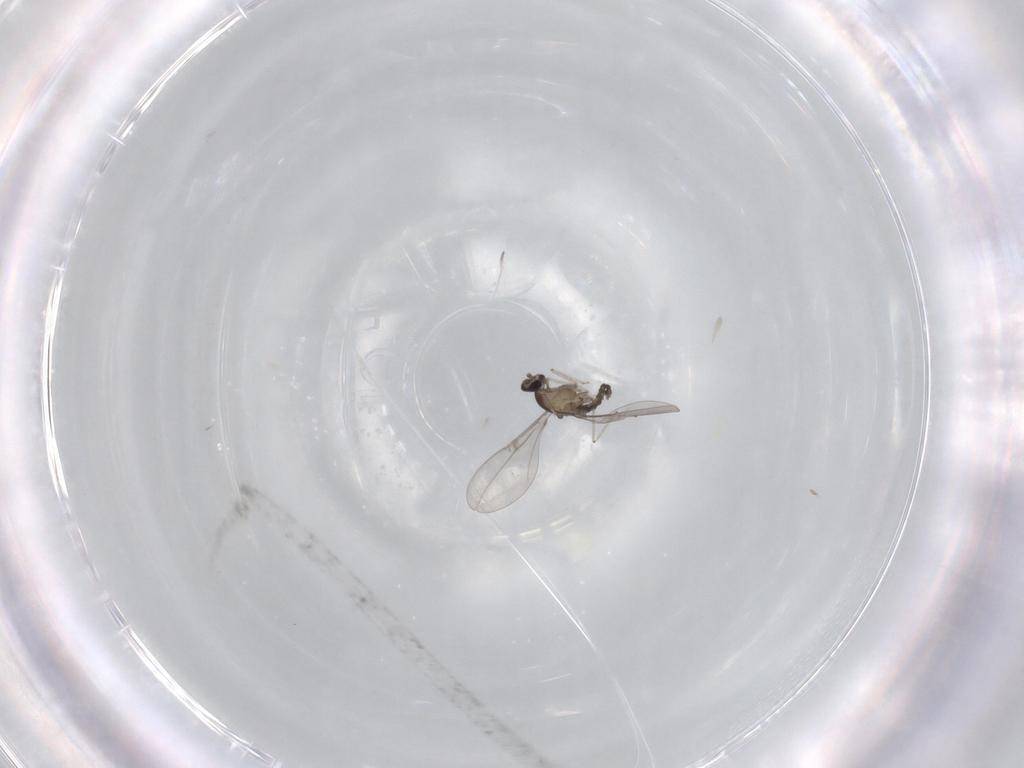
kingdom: Animalia
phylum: Arthropoda
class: Insecta
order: Diptera
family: Cecidomyiidae
